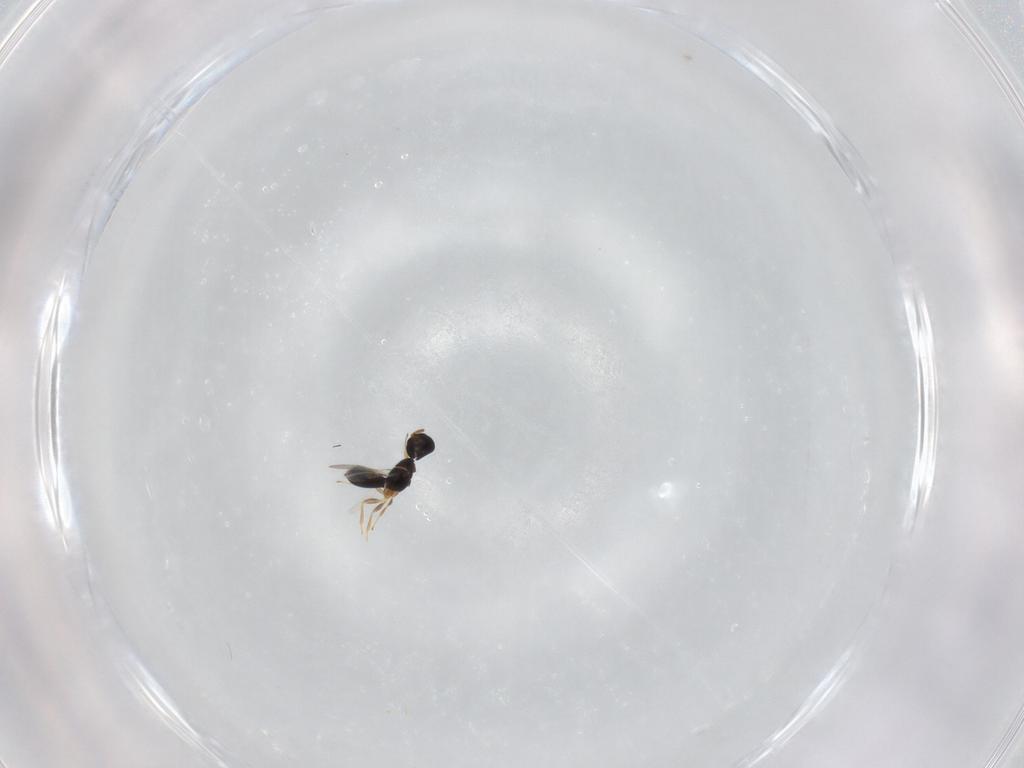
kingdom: Animalia
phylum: Arthropoda
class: Insecta
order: Hymenoptera
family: Scelionidae
